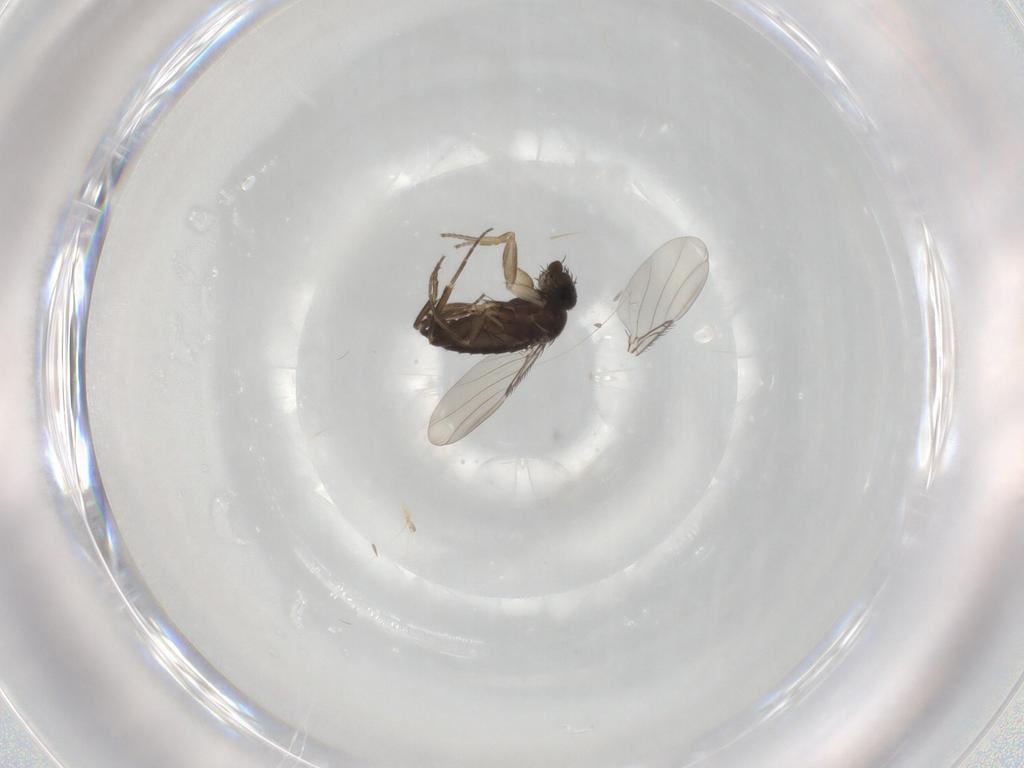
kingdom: Animalia
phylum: Arthropoda
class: Insecta
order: Diptera
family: Phoridae
